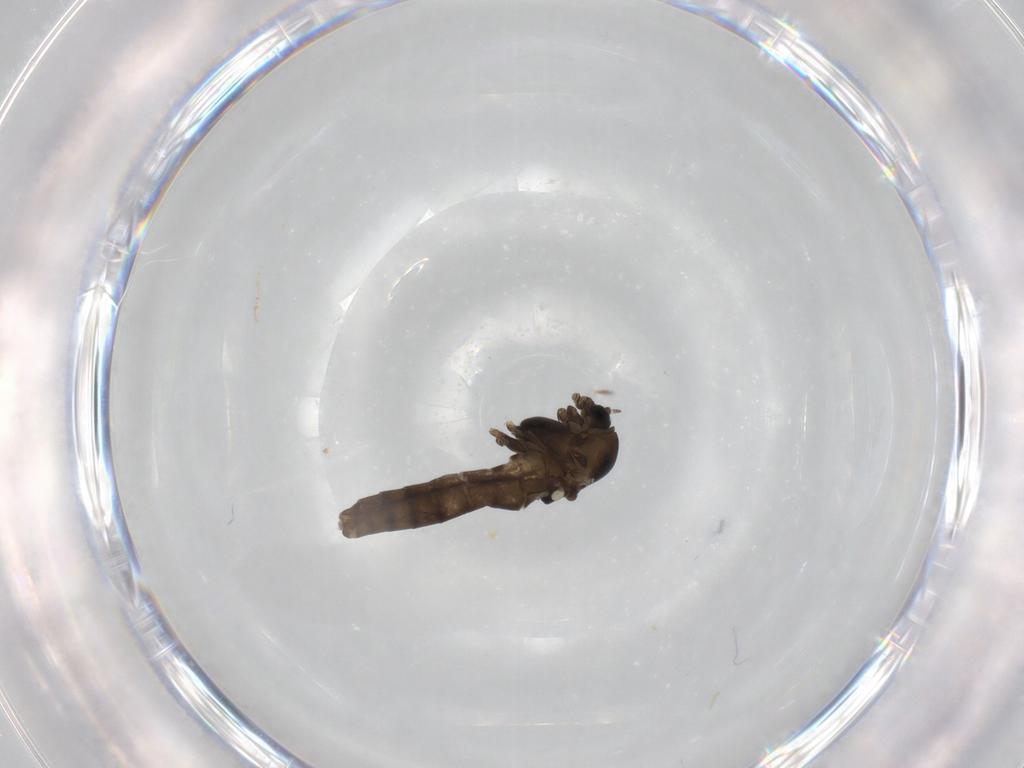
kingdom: Animalia
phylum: Arthropoda
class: Insecta
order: Diptera
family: Chironomidae
